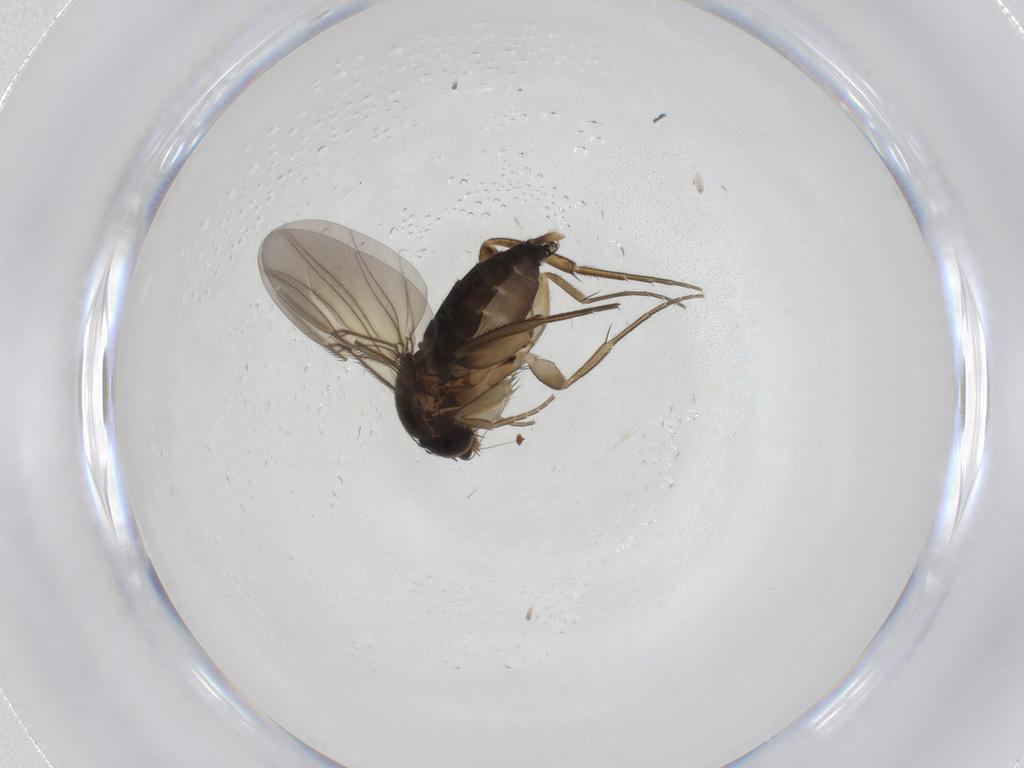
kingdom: Animalia
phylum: Arthropoda
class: Insecta
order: Diptera
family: Phoridae
